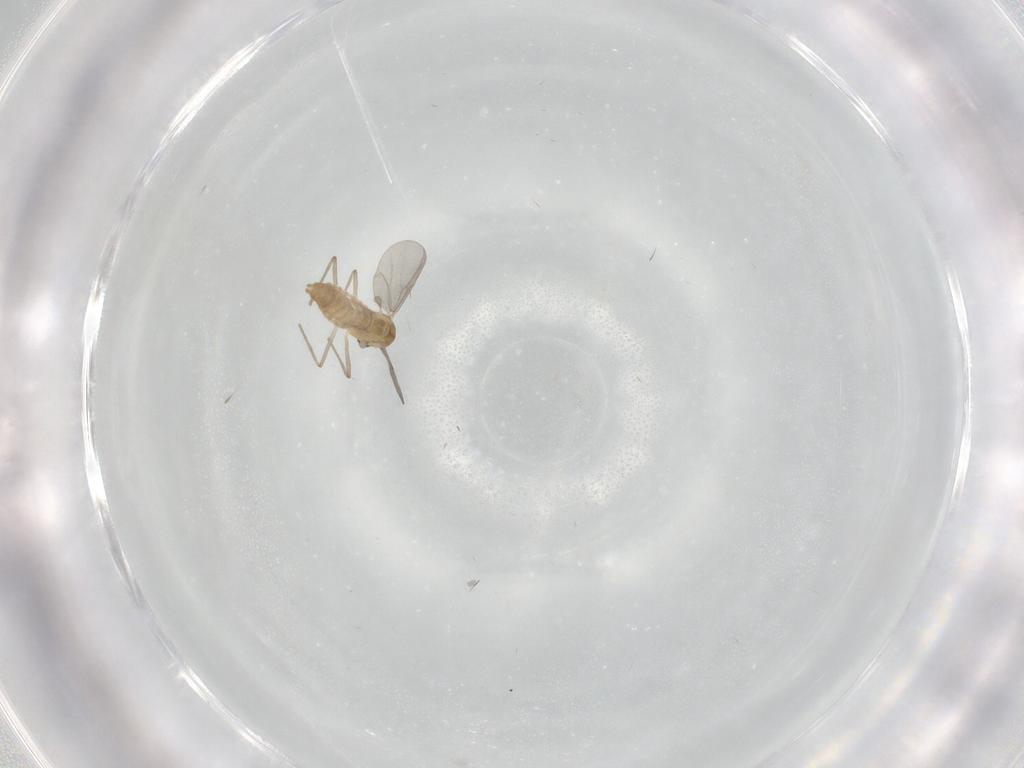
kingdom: Animalia
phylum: Arthropoda
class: Insecta
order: Diptera
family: Chironomidae
